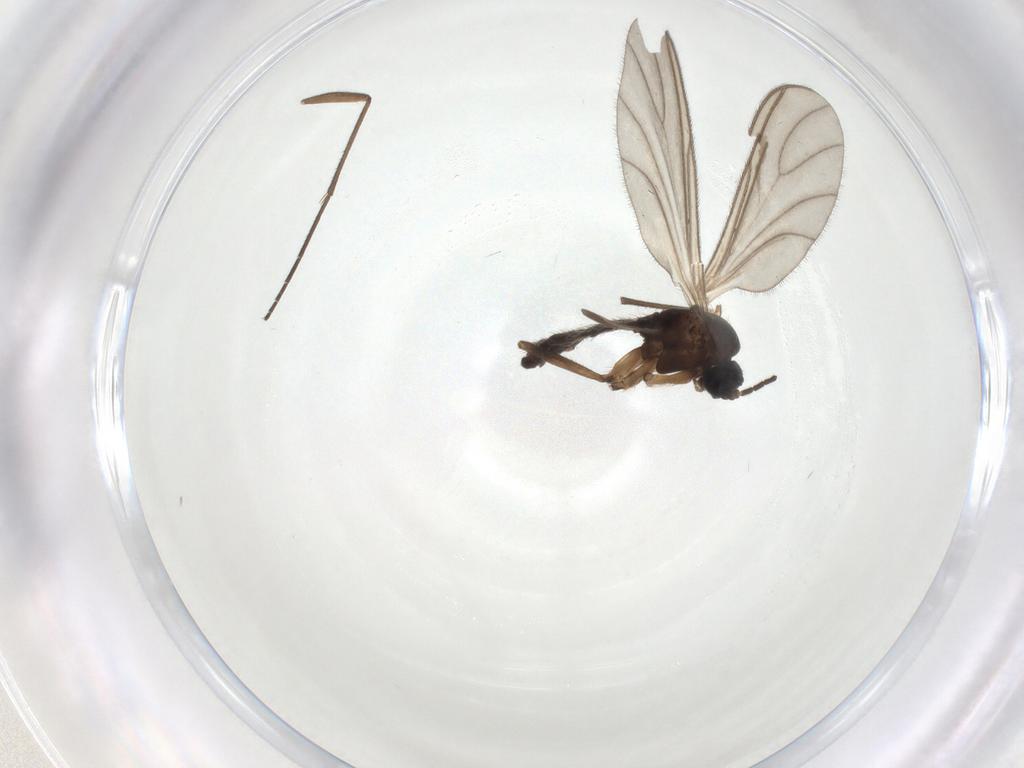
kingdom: Animalia
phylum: Arthropoda
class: Insecta
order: Diptera
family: Sciaridae
